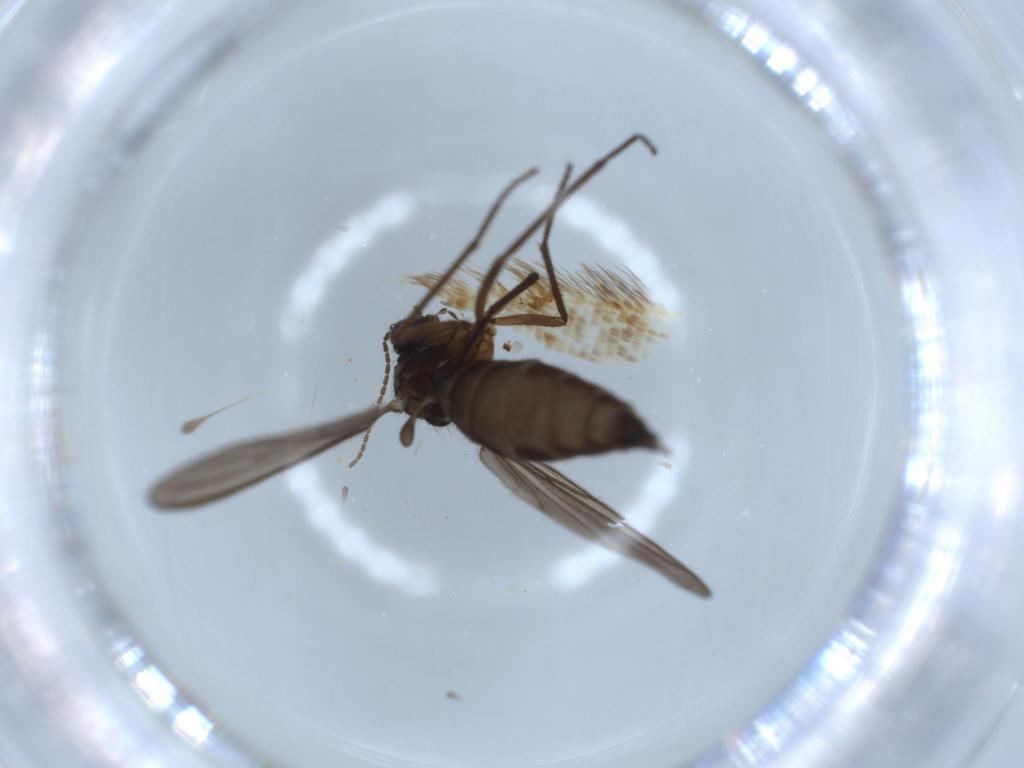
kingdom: Animalia
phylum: Arthropoda
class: Insecta
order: Diptera
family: Sciaridae
